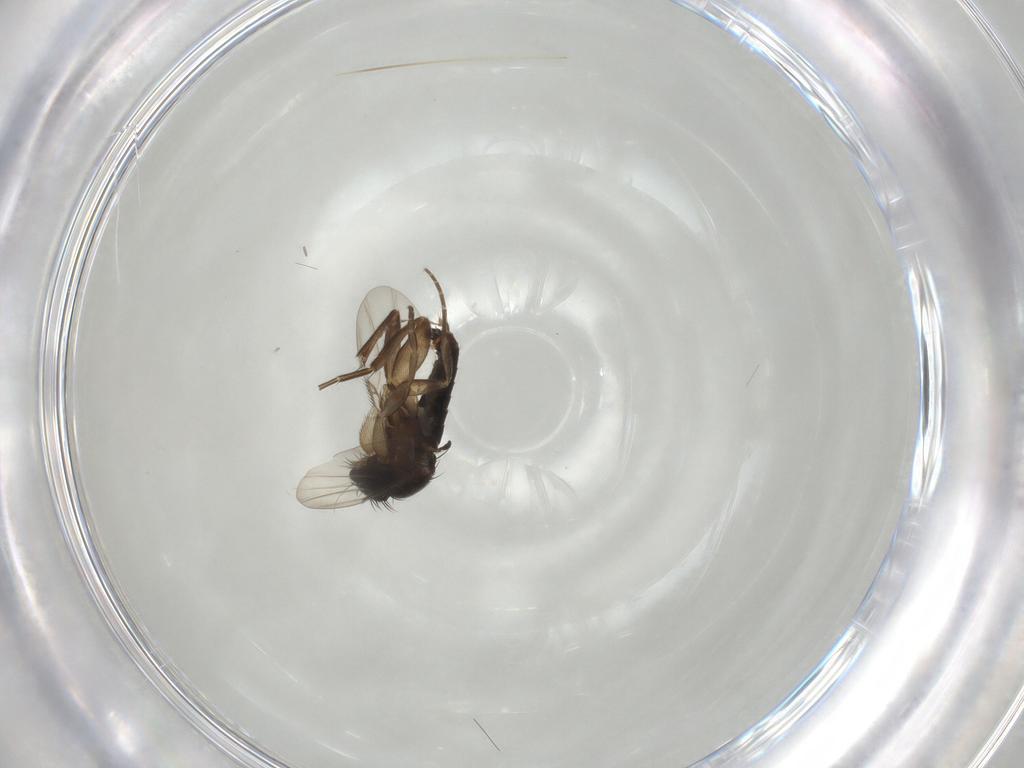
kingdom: Animalia
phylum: Arthropoda
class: Insecta
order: Diptera
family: Phoridae
